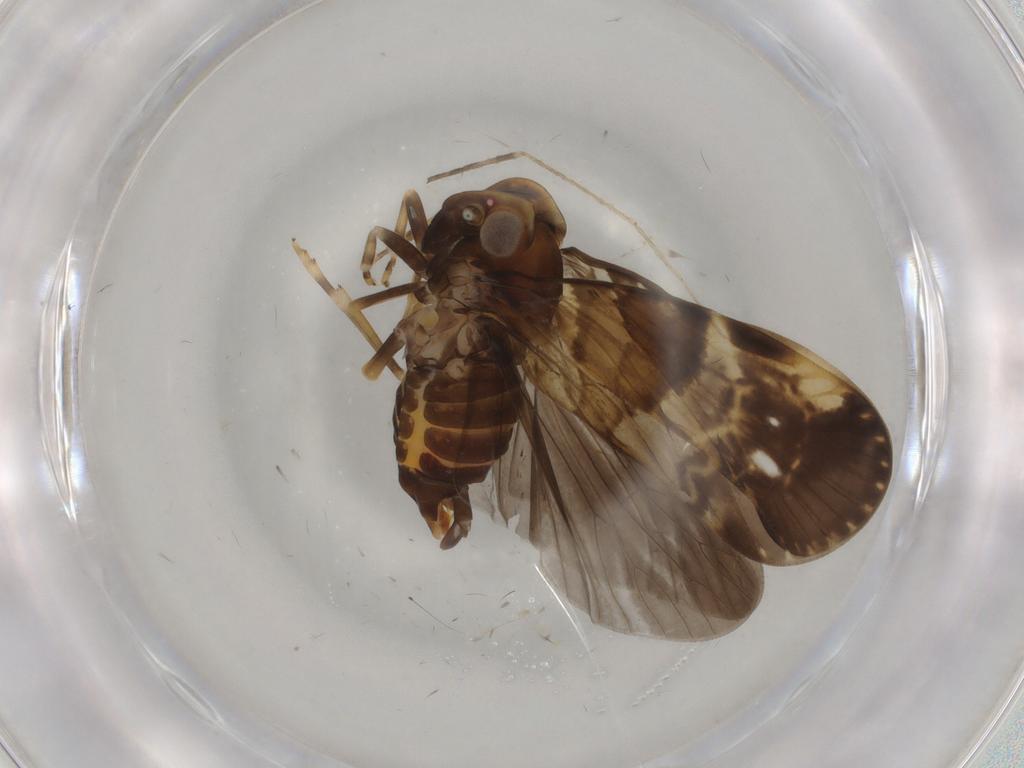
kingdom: Animalia
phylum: Arthropoda
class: Insecta
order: Hemiptera
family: Cixiidae
